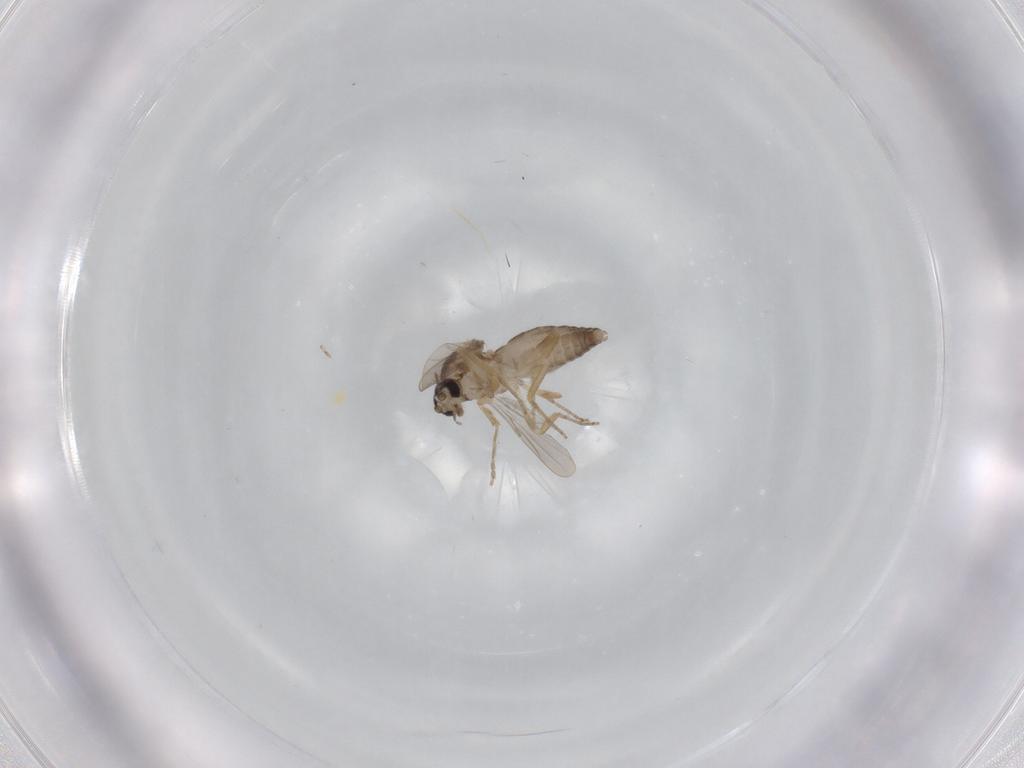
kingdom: Animalia
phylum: Arthropoda
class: Insecta
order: Diptera
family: Ceratopogonidae
